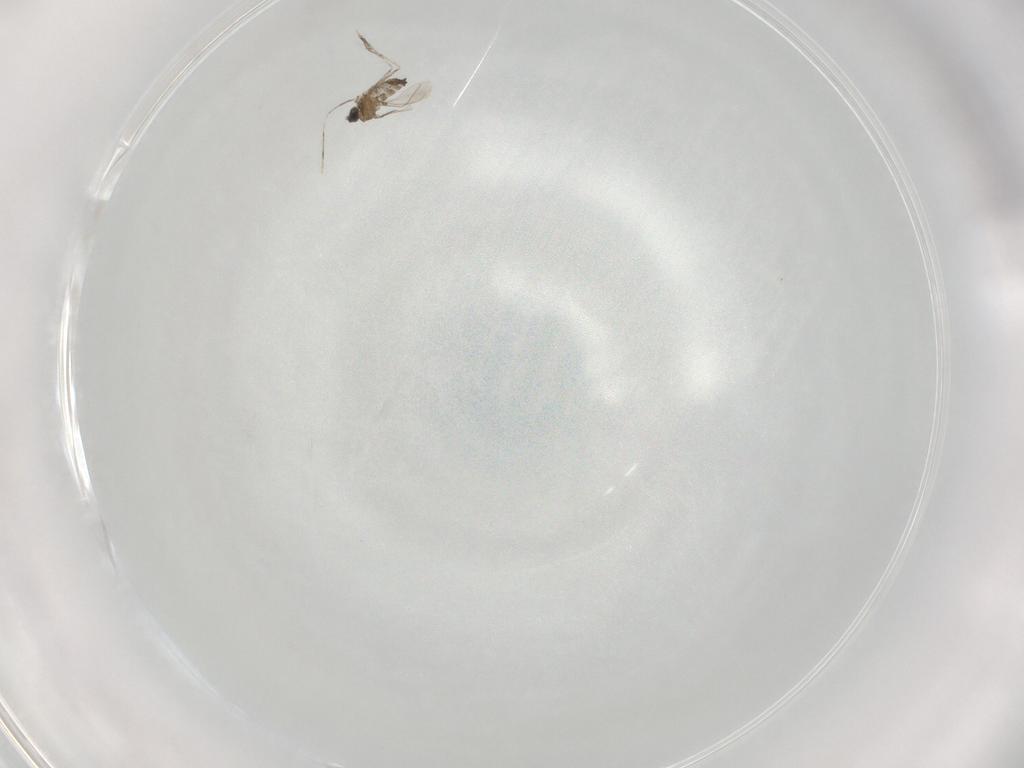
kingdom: Animalia
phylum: Arthropoda
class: Insecta
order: Diptera
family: Cecidomyiidae
